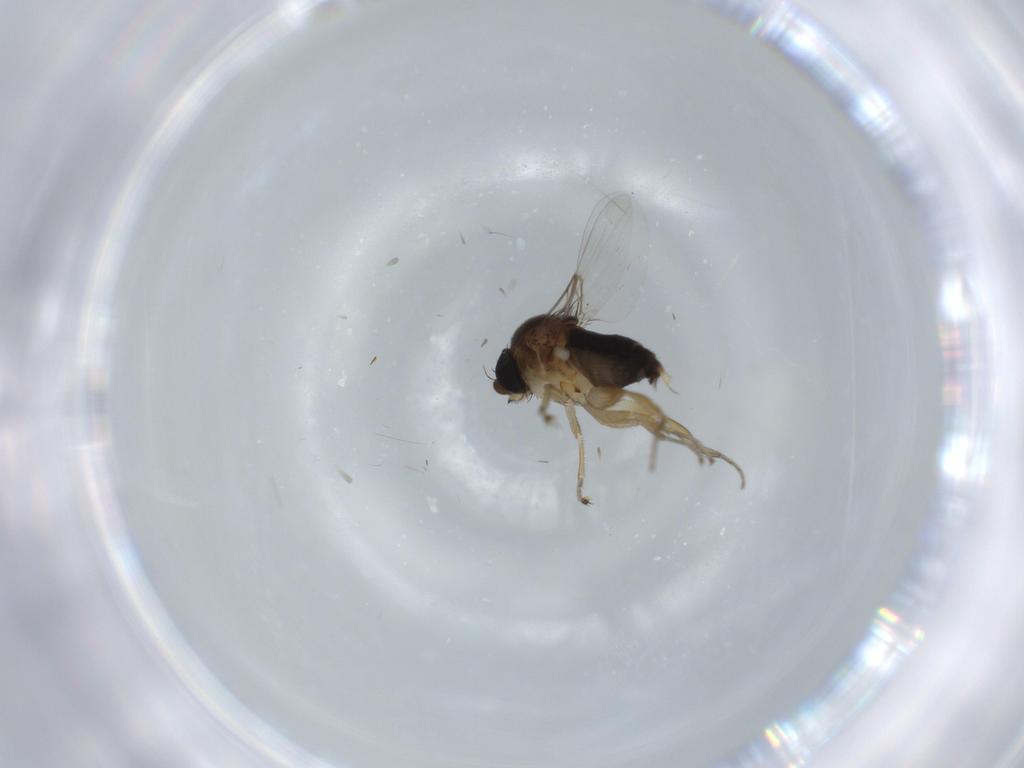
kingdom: Animalia
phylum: Arthropoda
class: Insecta
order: Diptera
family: Phoridae
